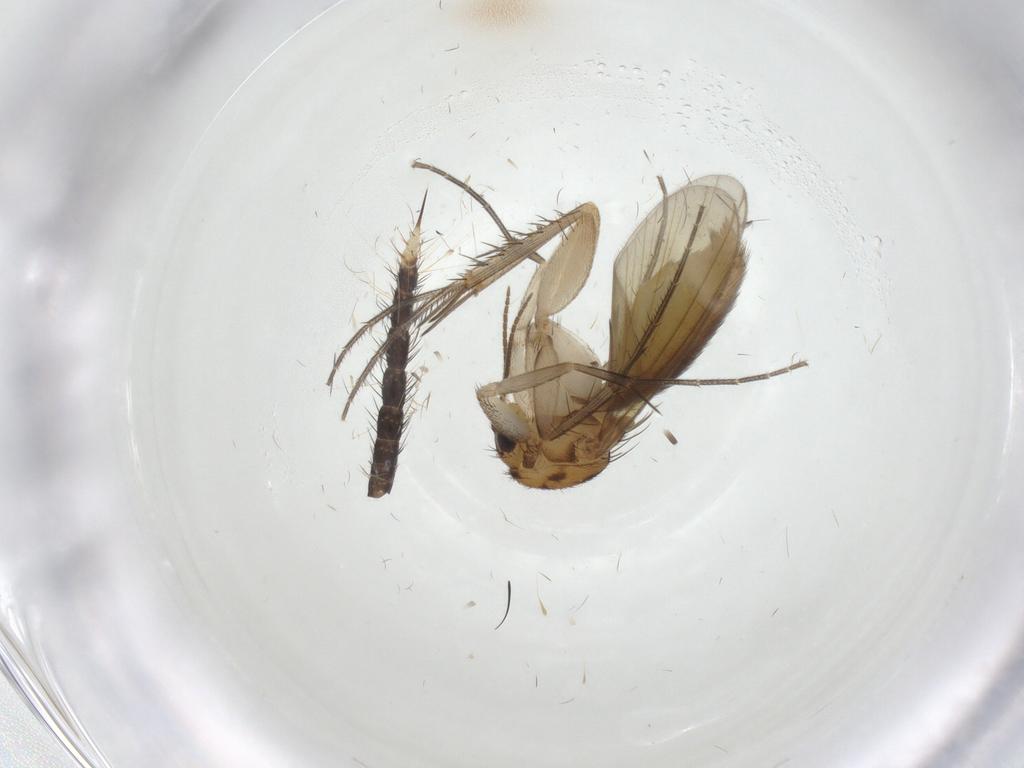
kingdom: Animalia
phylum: Arthropoda
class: Insecta
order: Diptera
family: Mycetophilidae
